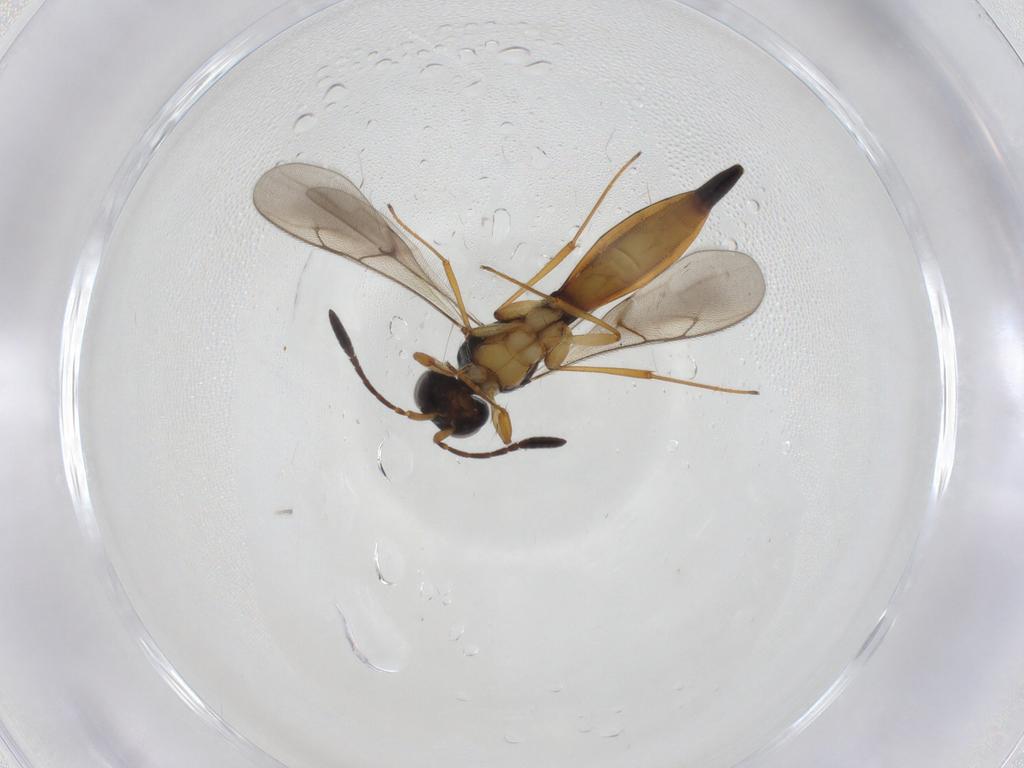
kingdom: Animalia
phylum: Arthropoda
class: Insecta
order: Hymenoptera
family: Scelionidae
